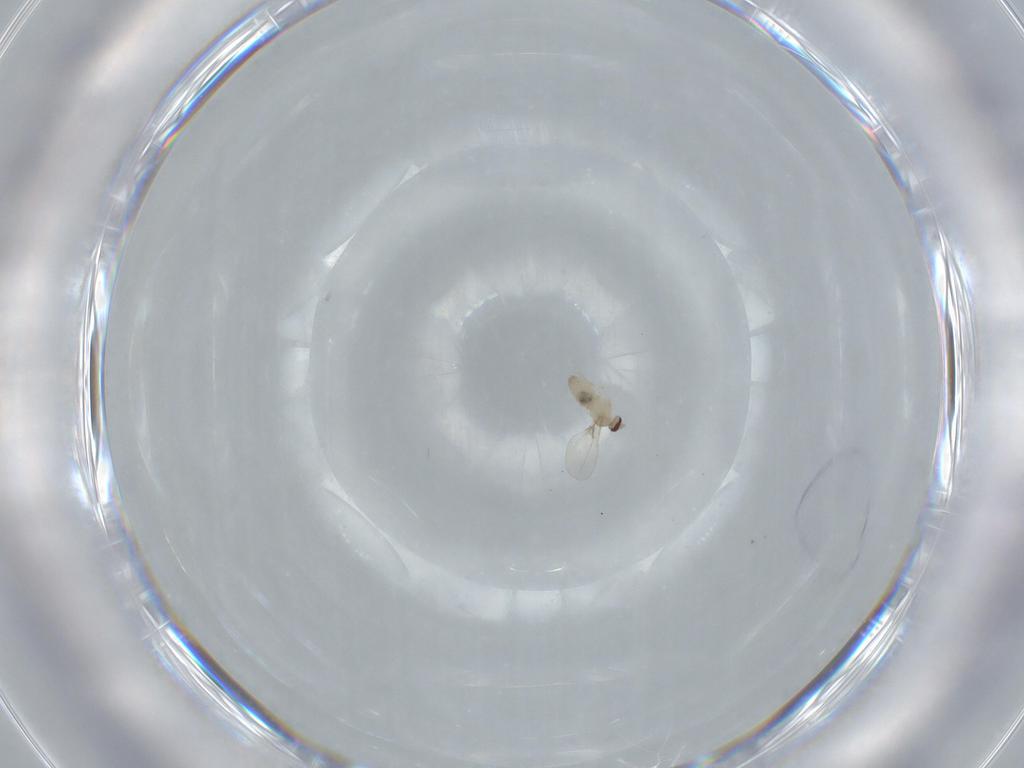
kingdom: Animalia
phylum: Arthropoda
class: Insecta
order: Diptera
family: Cecidomyiidae
